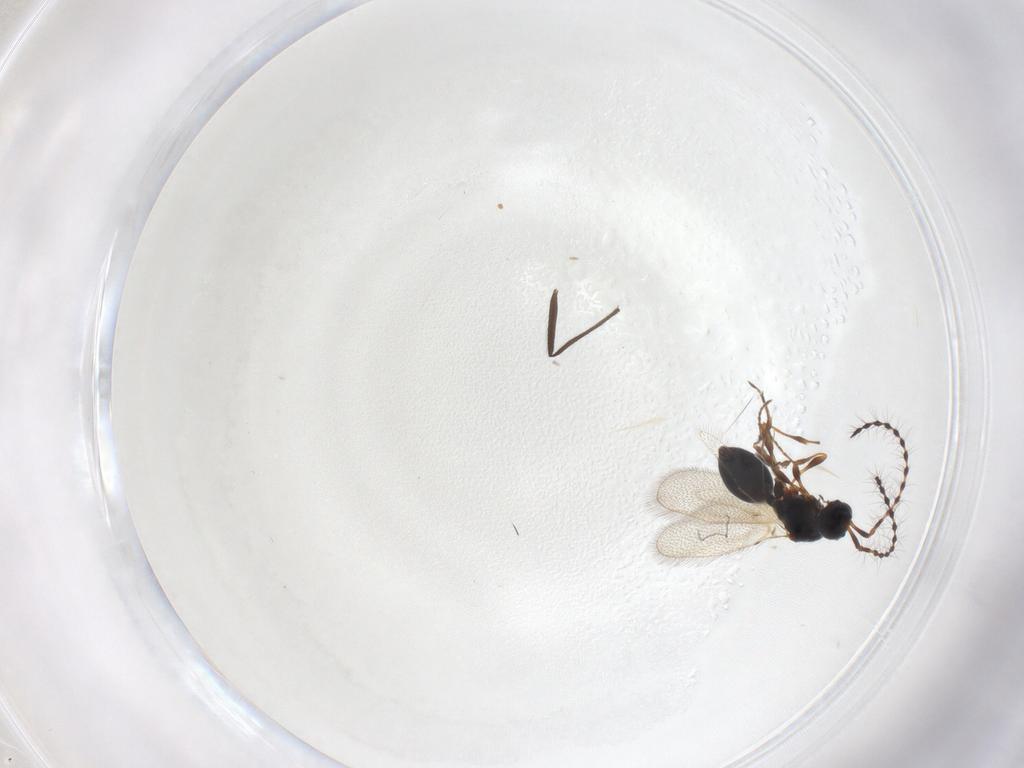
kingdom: Animalia
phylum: Arthropoda
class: Insecta
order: Hymenoptera
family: Diapriidae
